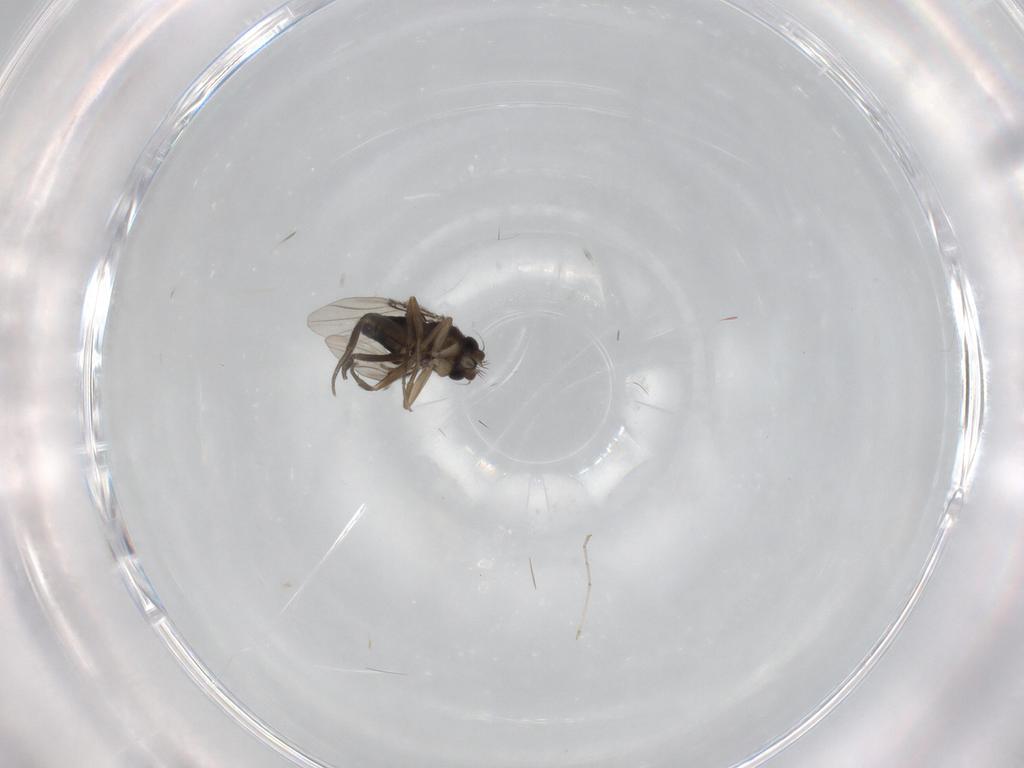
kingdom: Animalia
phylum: Arthropoda
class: Insecta
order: Diptera
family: Phoridae
